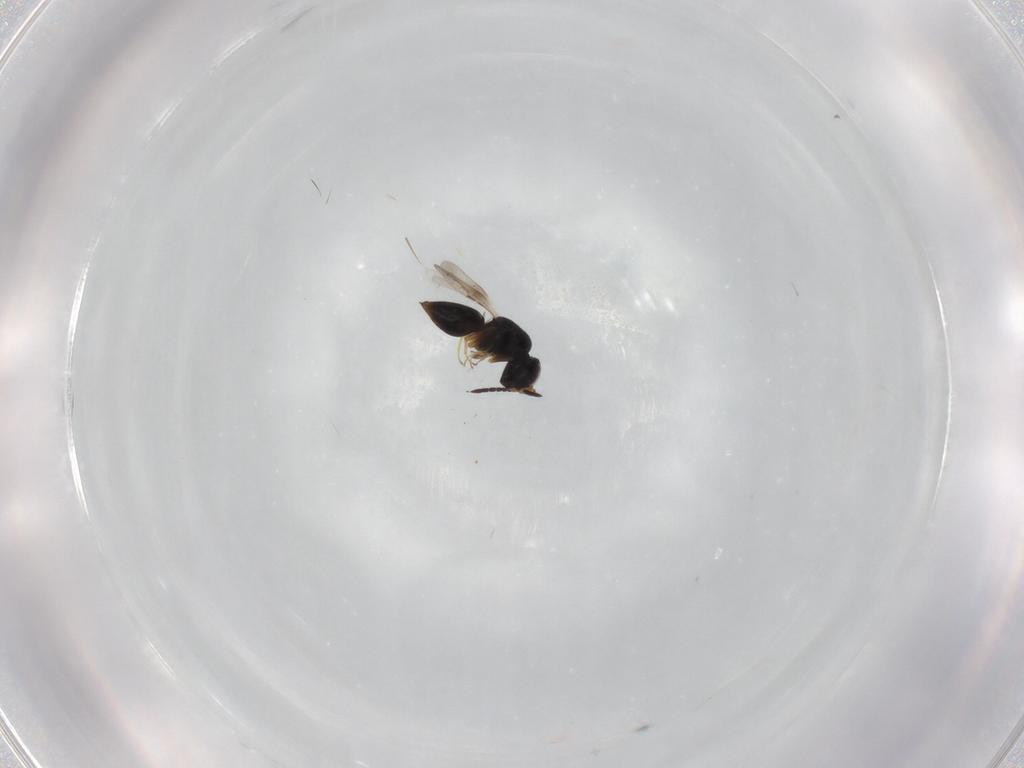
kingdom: Animalia
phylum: Arthropoda
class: Insecta
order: Hymenoptera
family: Scelionidae
